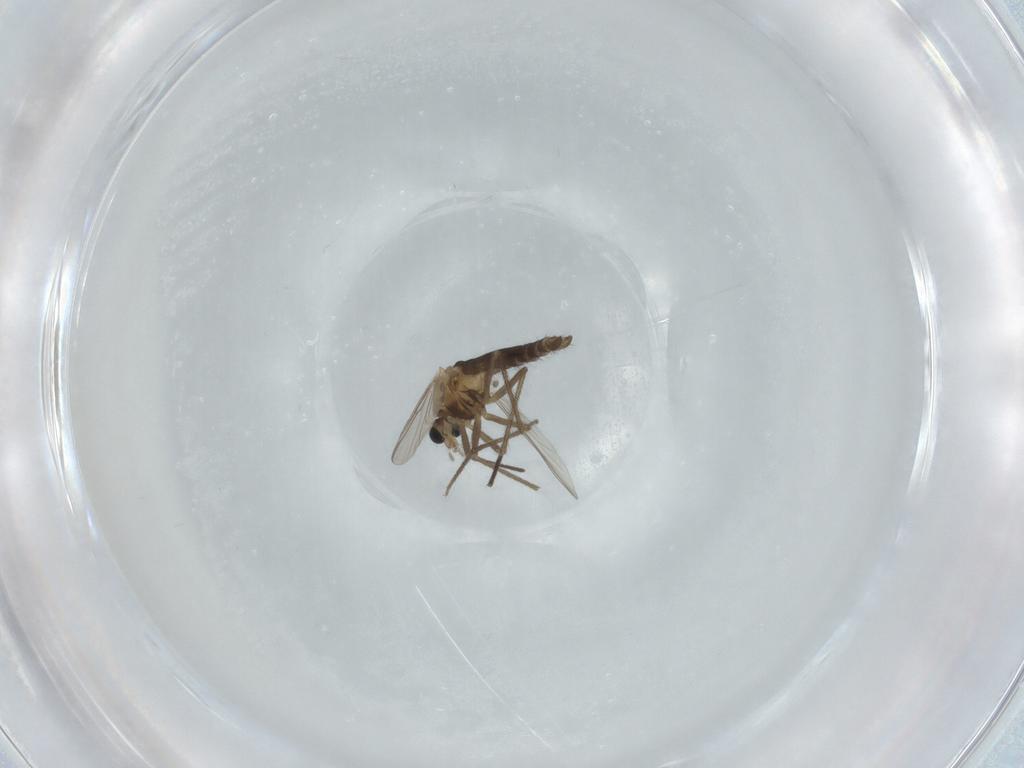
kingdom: Animalia
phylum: Arthropoda
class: Insecta
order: Diptera
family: Chironomidae
